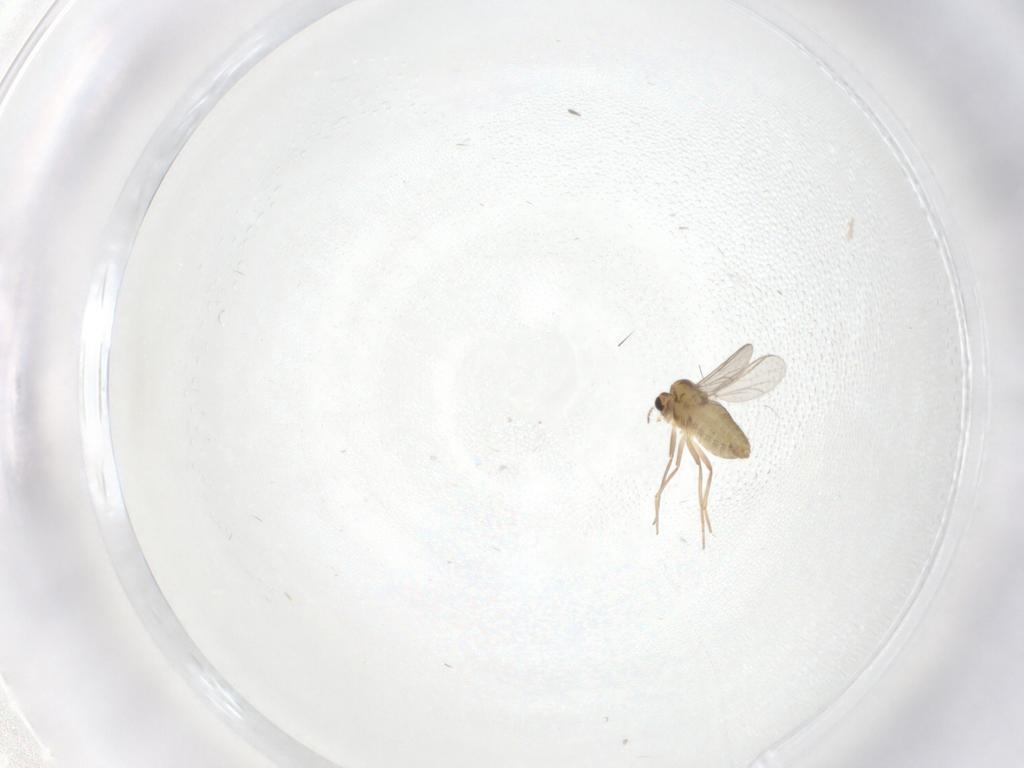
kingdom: Animalia
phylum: Arthropoda
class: Insecta
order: Diptera
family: Chironomidae
